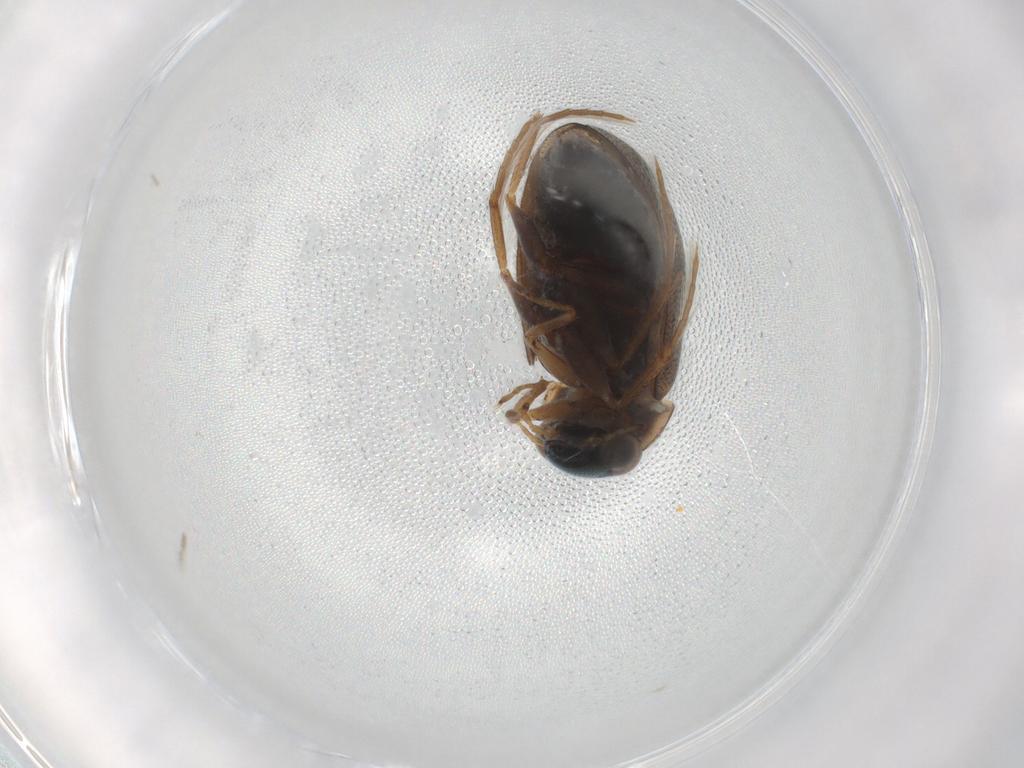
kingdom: Animalia
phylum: Arthropoda
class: Insecta
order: Coleoptera
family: Staphylinidae
